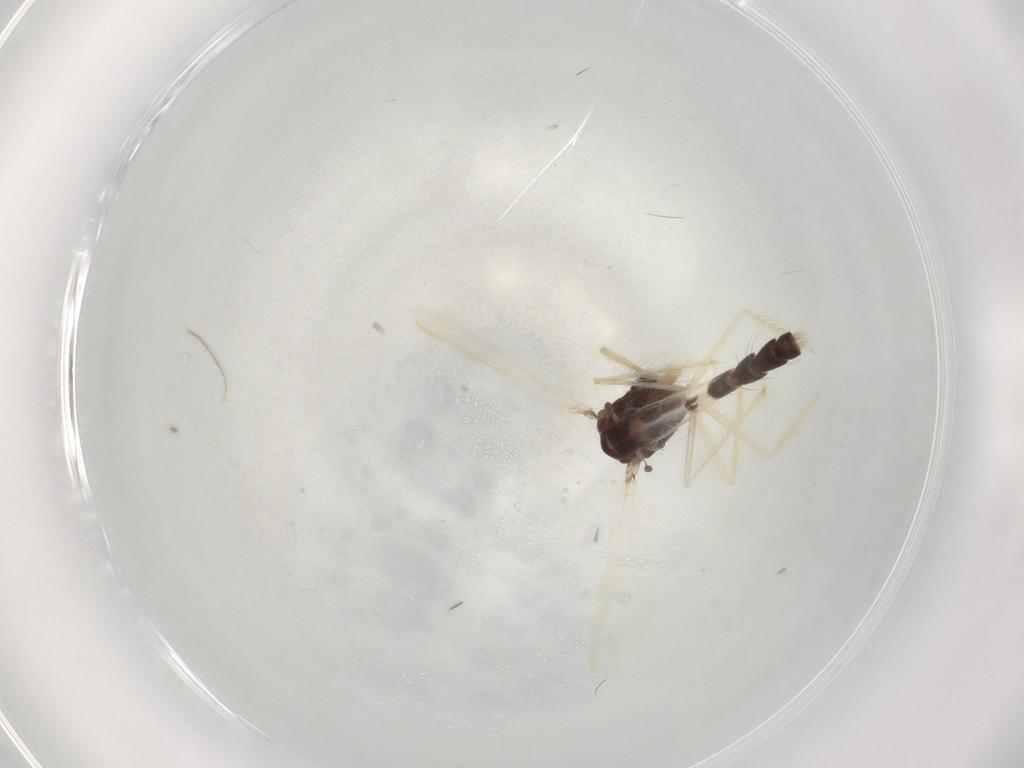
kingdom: Animalia
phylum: Arthropoda
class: Insecta
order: Diptera
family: Chironomidae
